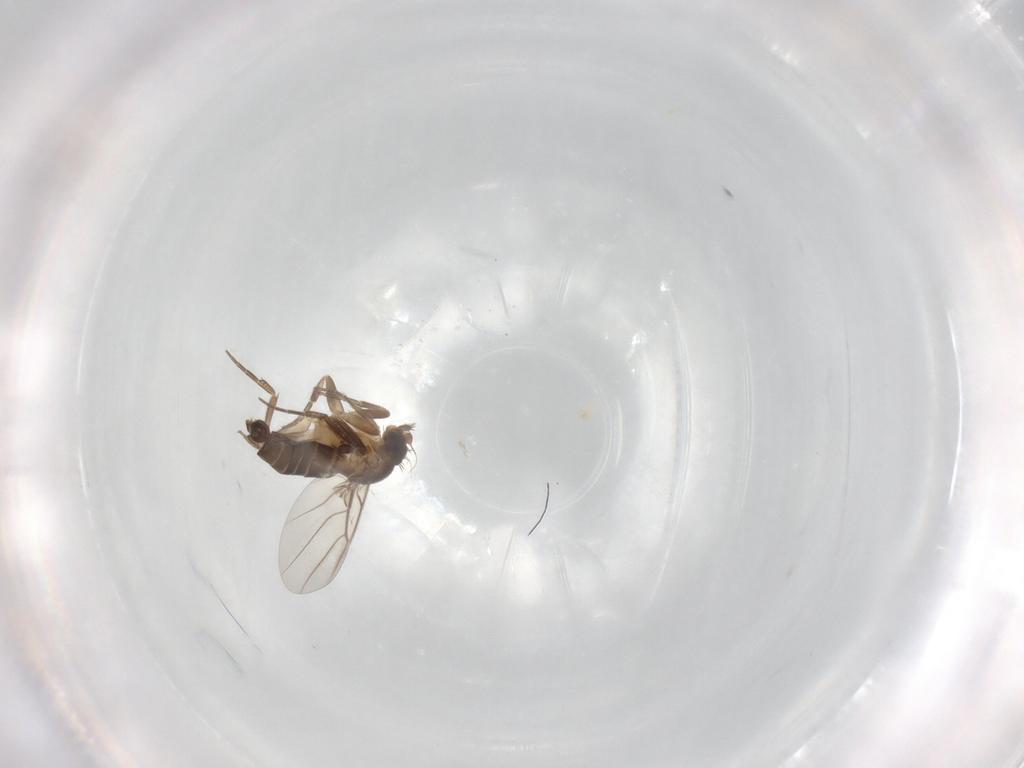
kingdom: Animalia
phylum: Arthropoda
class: Insecta
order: Diptera
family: Phoridae
